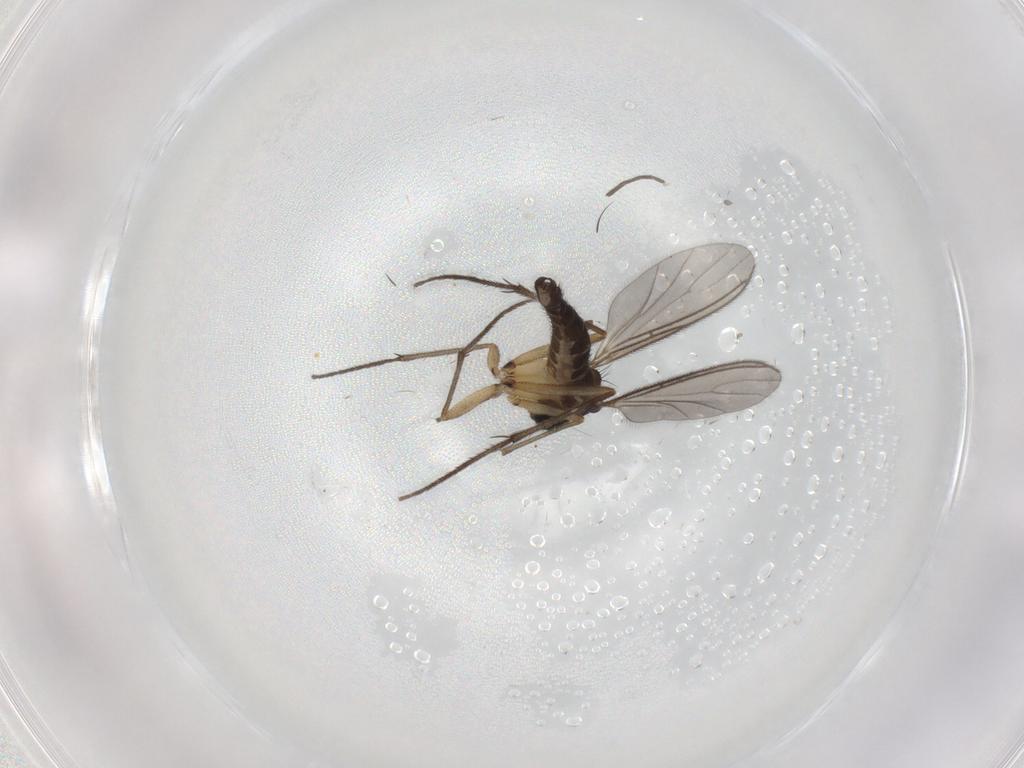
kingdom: Animalia
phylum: Arthropoda
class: Insecta
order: Diptera
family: Sciaridae
